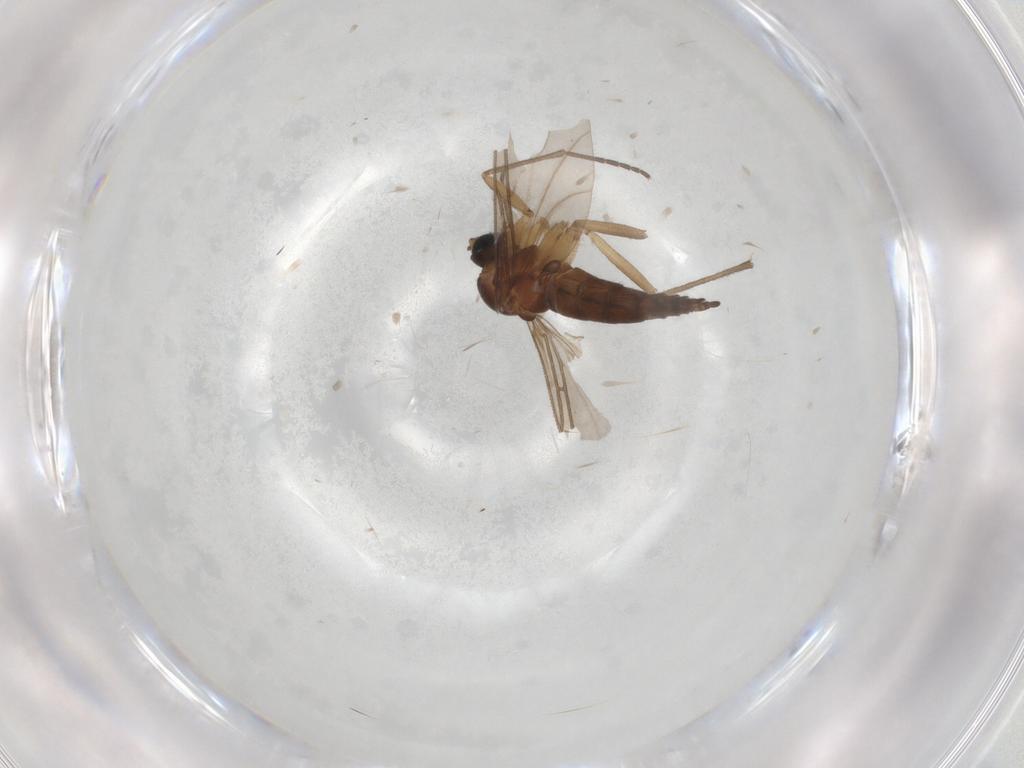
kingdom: Animalia
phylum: Arthropoda
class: Insecta
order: Diptera
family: Sciaridae
